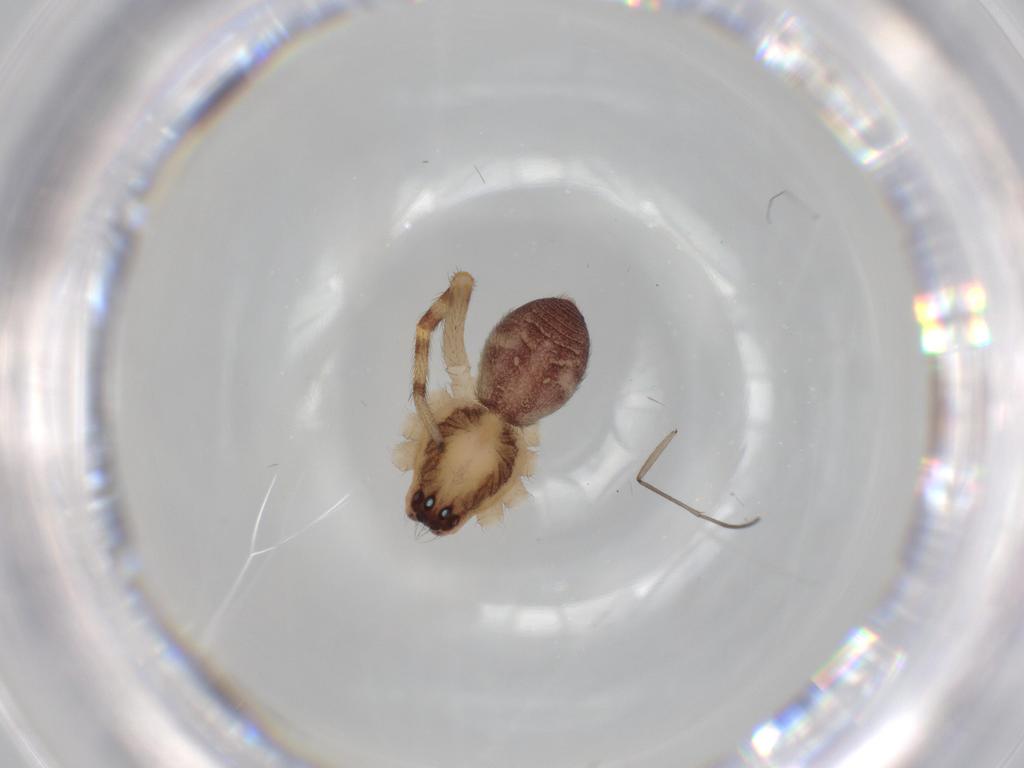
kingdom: Animalia
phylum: Arthropoda
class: Arachnida
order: Araneae
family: Corinnidae
